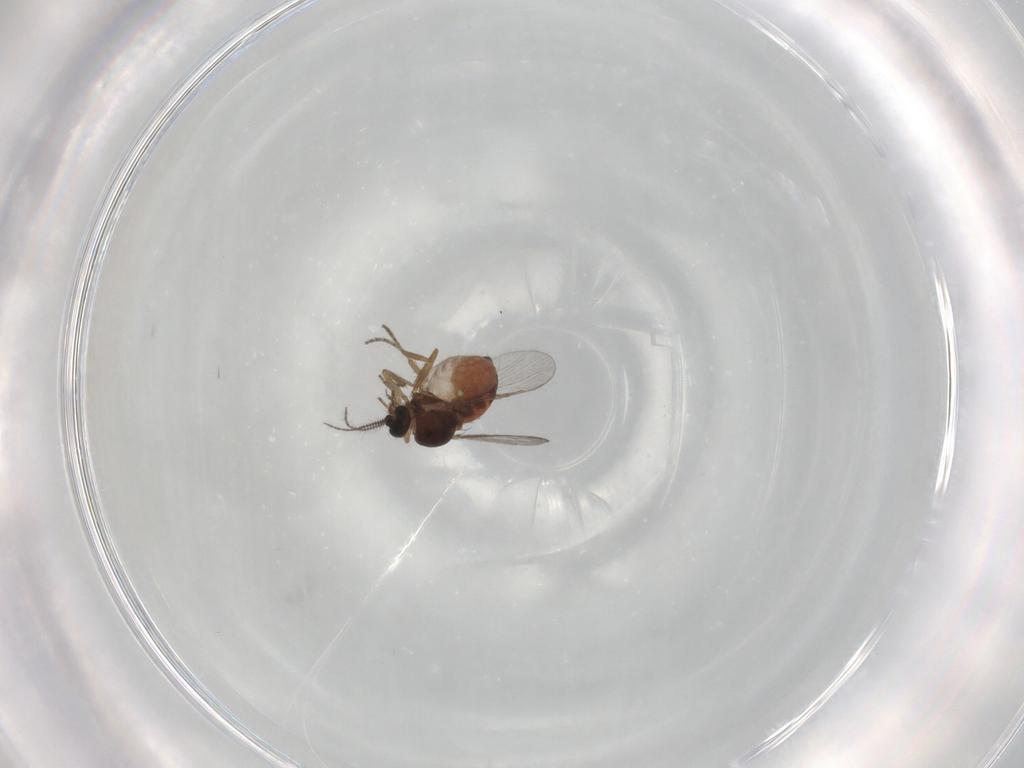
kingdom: Animalia
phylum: Arthropoda
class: Insecta
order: Diptera
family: Ceratopogonidae
